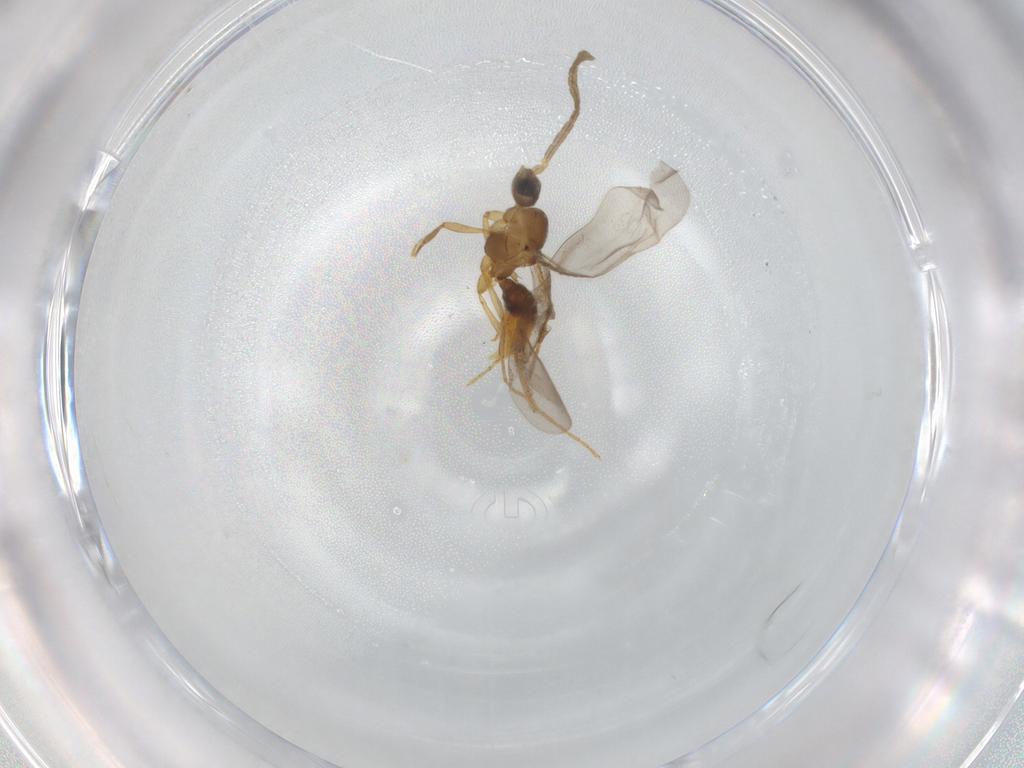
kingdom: Animalia
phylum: Arthropoda
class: Insecta
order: Hymenoptera
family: Formicidae
